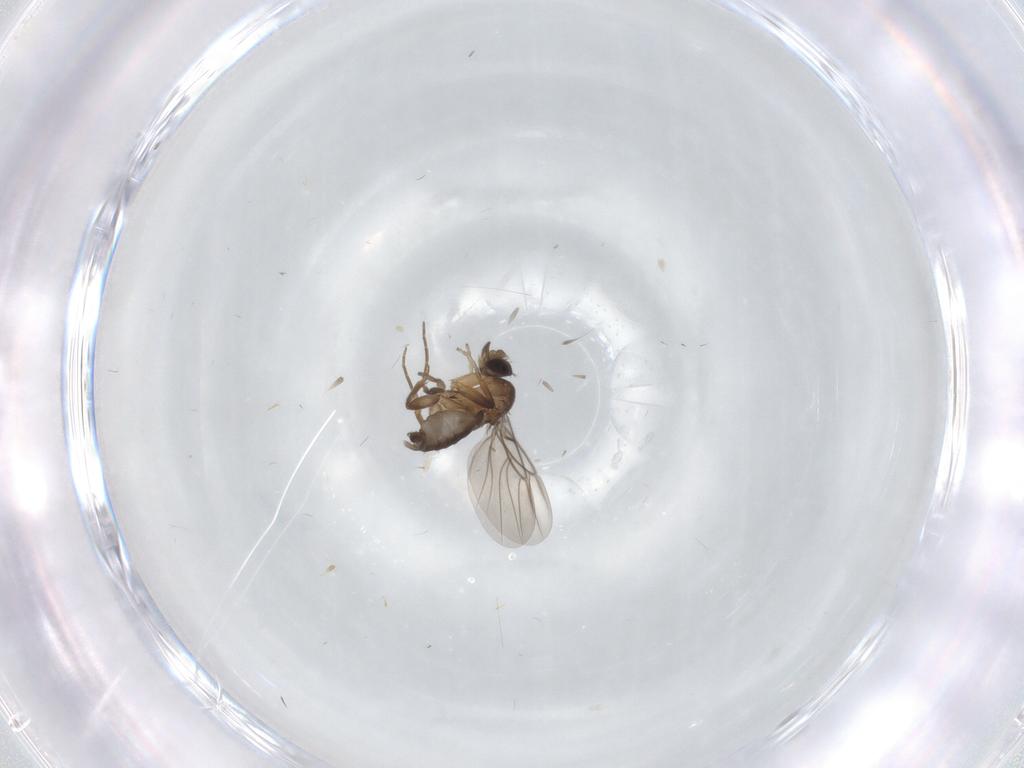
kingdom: Animalia
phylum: Arthropoda
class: Insecta
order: Diptera
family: Phoridae
